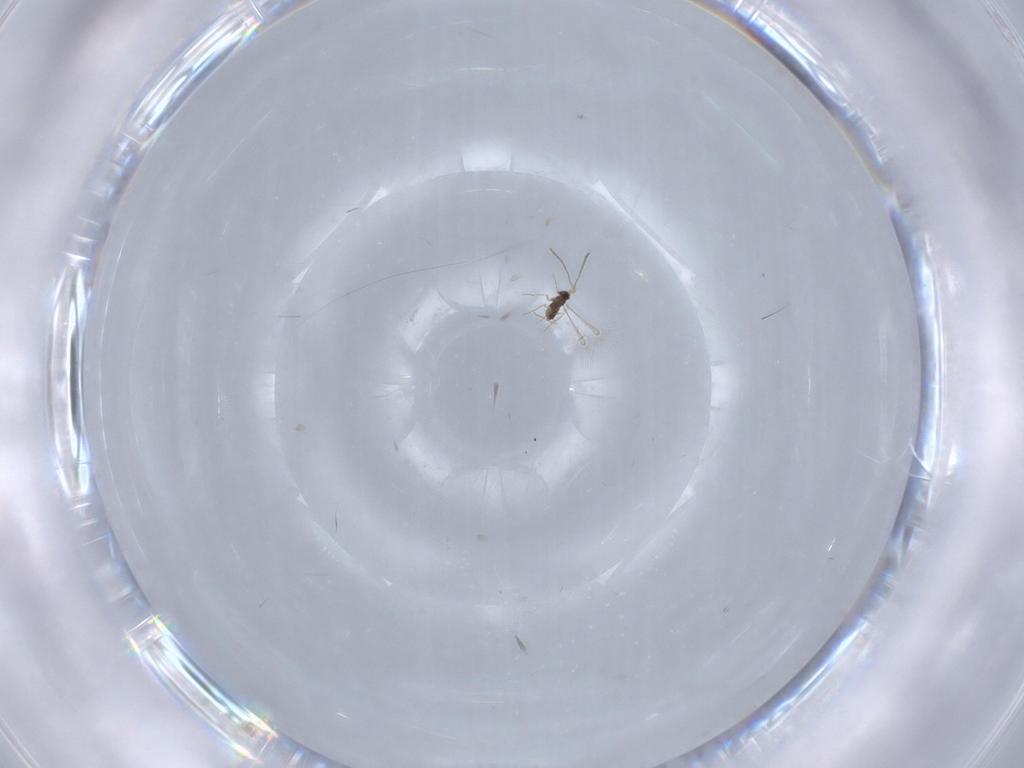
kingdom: Animalia
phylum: Arthropoda
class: Insecta
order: Hymenoptera
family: Mymaridae
